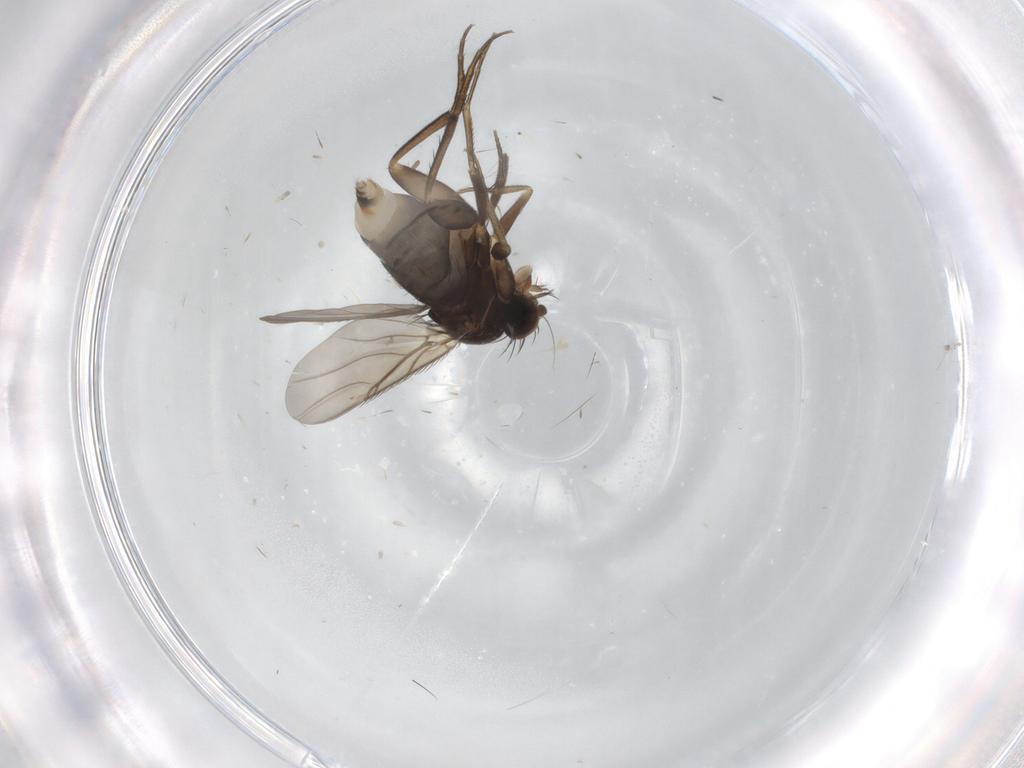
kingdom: Animalia
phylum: Arthropoda
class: Insecta
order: Diptera
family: Phoridae
